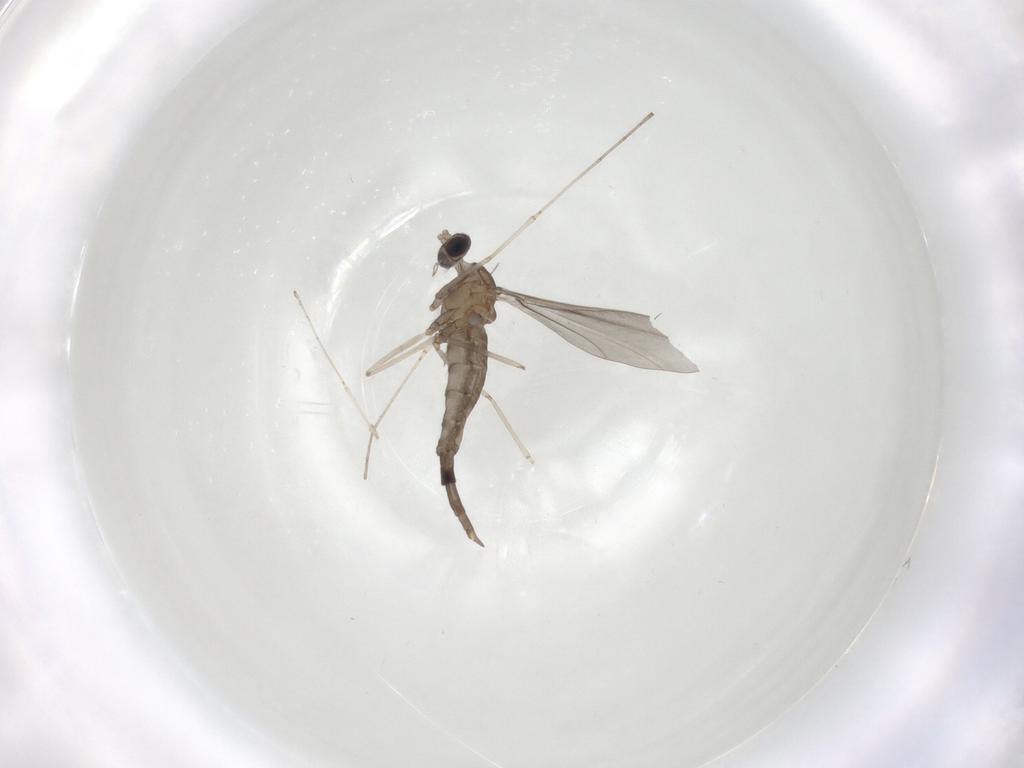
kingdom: Animalia
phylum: Arthropoda
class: Insecta
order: Diptera
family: Cecidomyiidae
